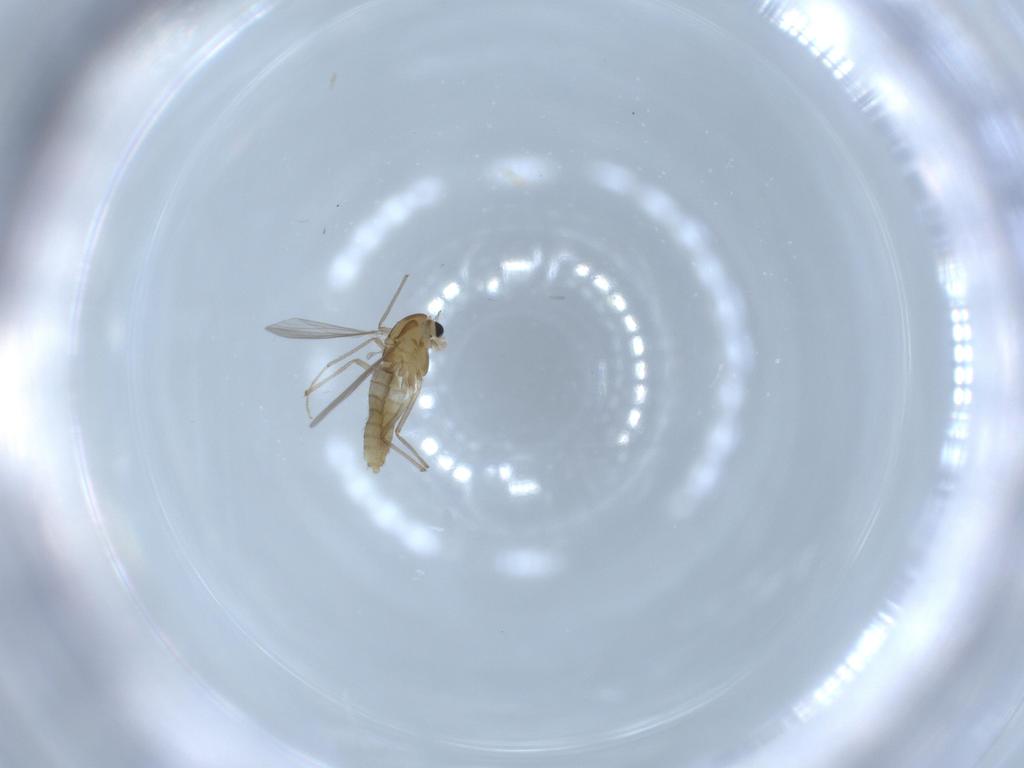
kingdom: Animalia
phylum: Arthropoda
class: Insecta
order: Diptera
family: Chironomidae
